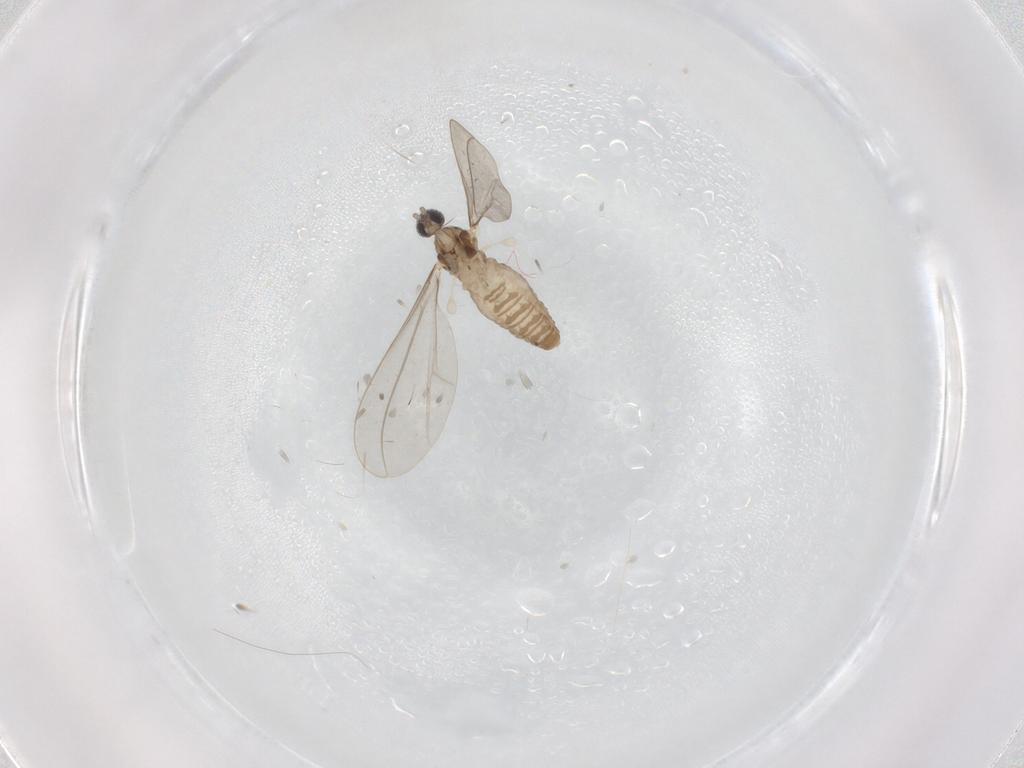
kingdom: Animalia
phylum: Arthropoda
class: Insecta
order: Diptera
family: Cecidomyiidae
